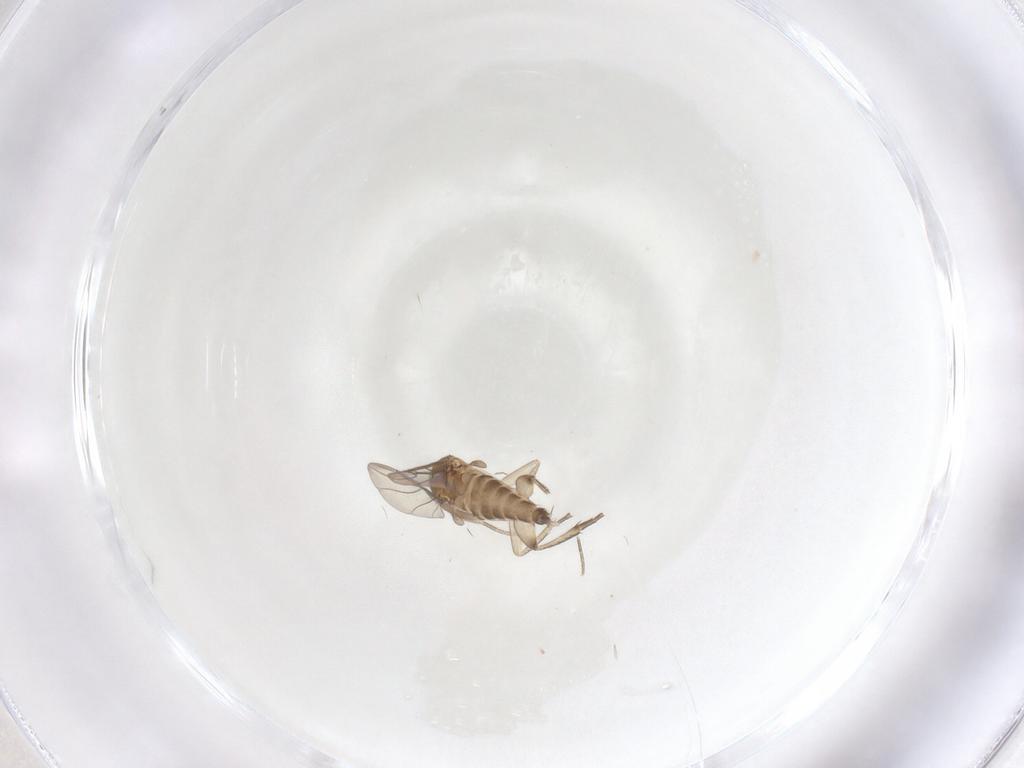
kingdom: Animalia
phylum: Arthropoda
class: Insecta
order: Diptera
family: Phoridae
